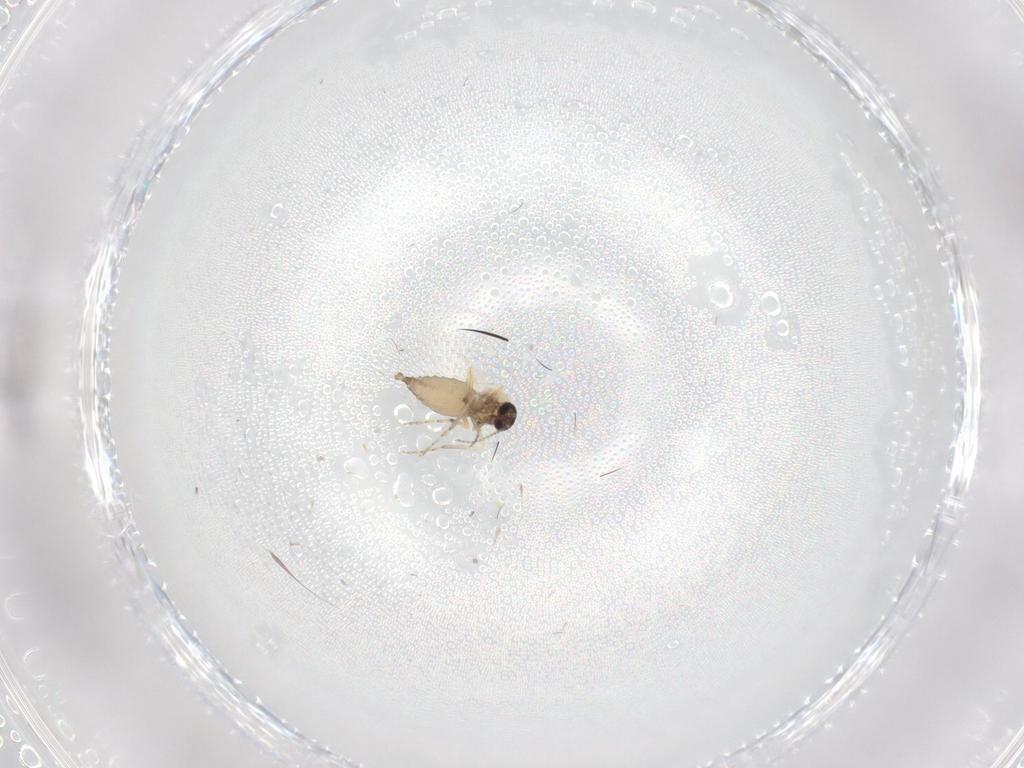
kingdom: Animalia
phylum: Arthropoda
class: Insecta
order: Diptera
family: Ceratopogonidae
